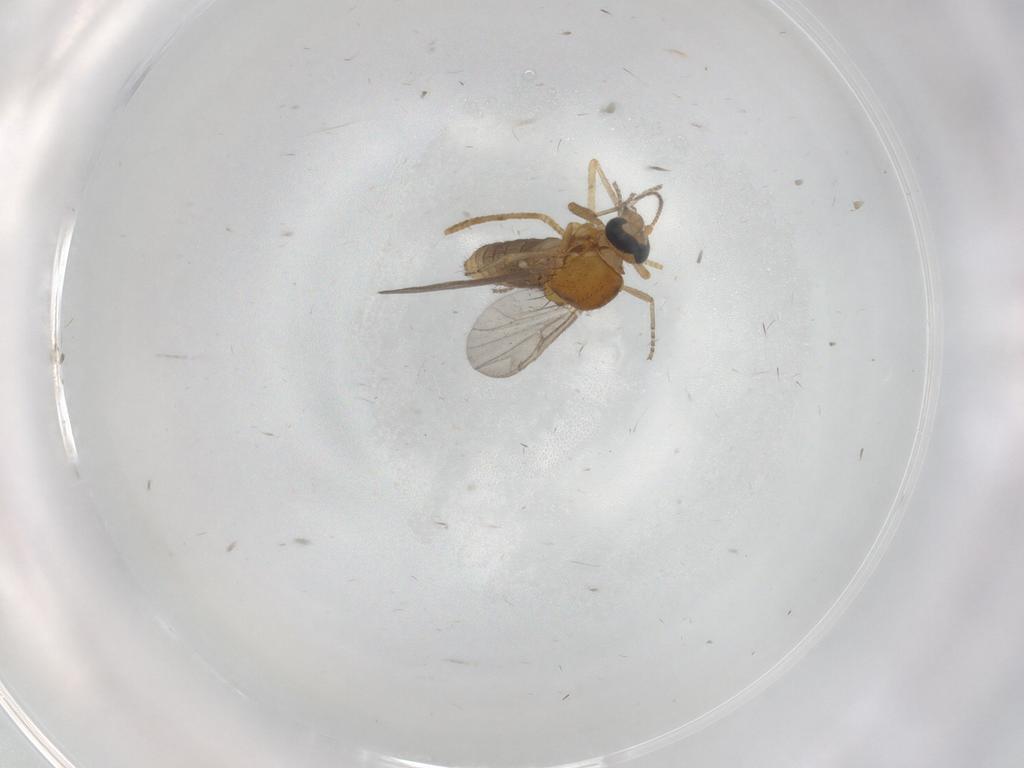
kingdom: Animalia
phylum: Arthropoda
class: Insecta
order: Diptera
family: Ceratopogonidae
